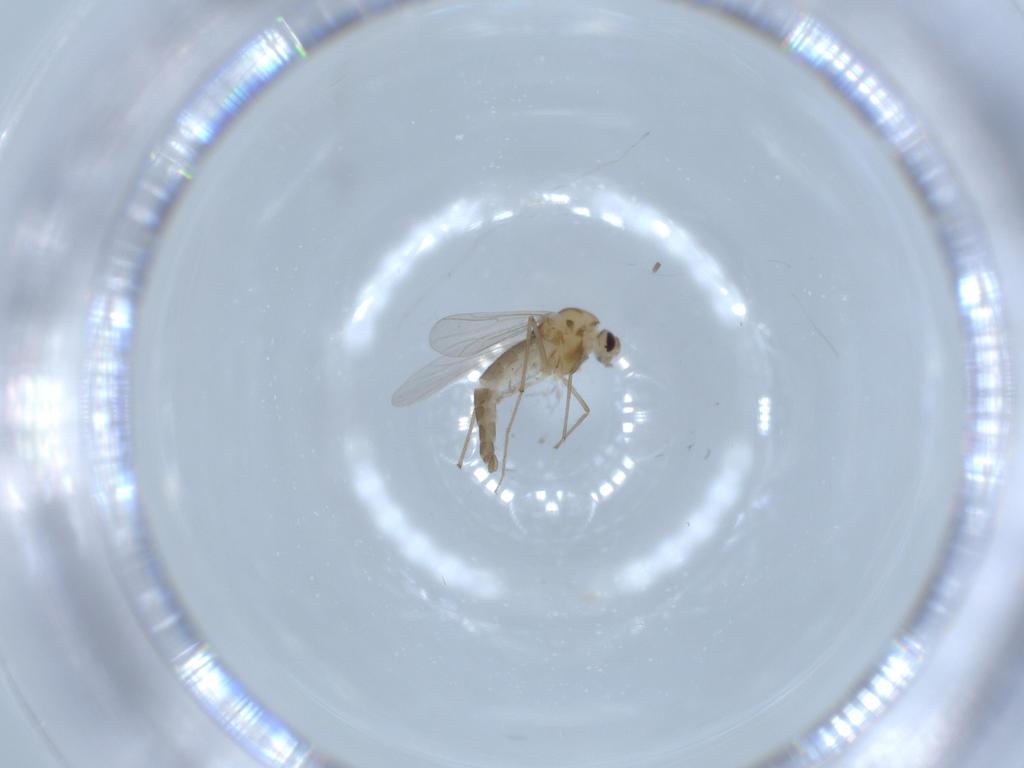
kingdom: Animalia
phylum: Arthropoda
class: Insecta
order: Diptera
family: Chironomidae
